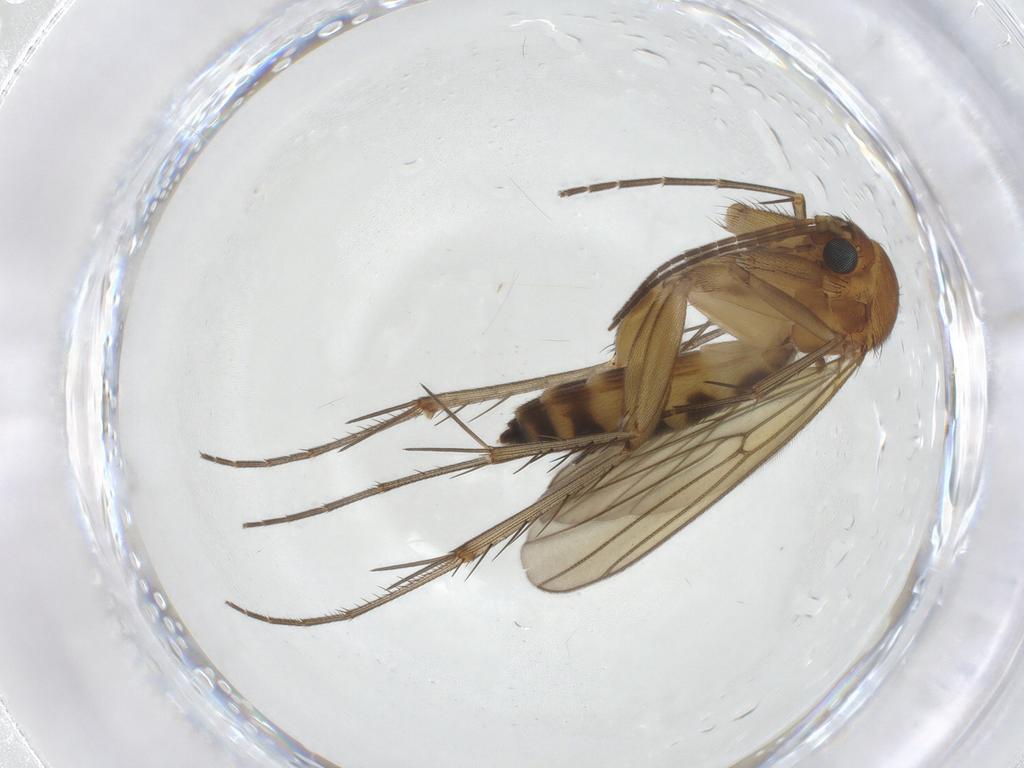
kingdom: Animalia
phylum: Arthropoda
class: Insecta
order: Diptera
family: Mycetophilidae
